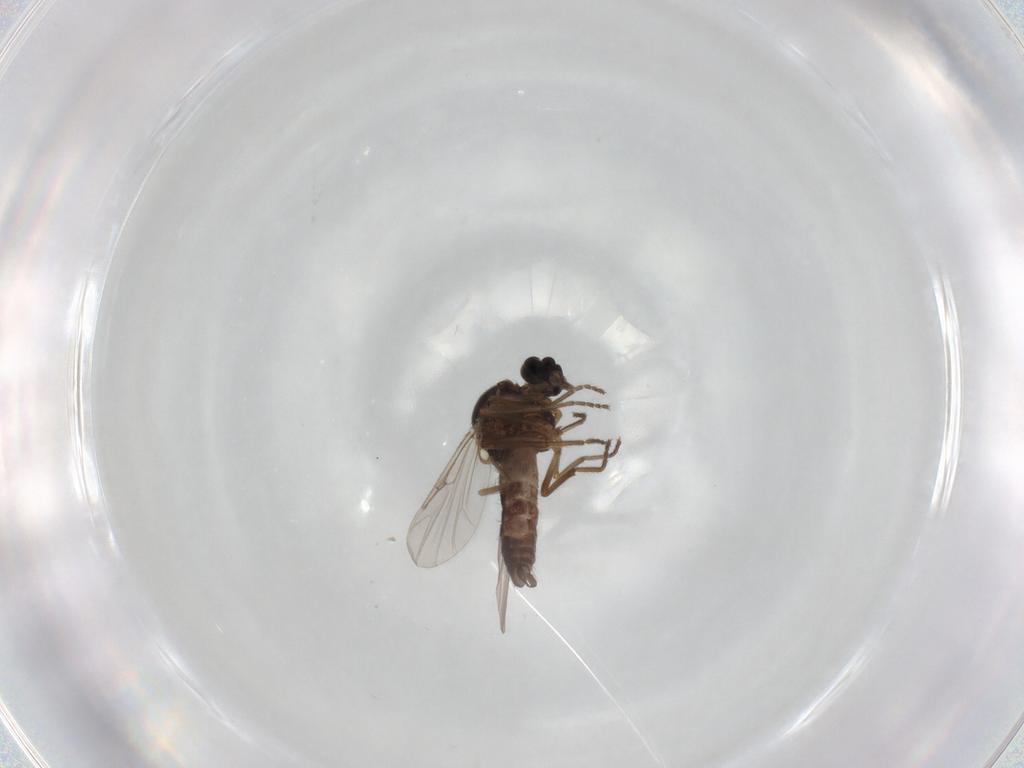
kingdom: Animalia
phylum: Arthropoda
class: Insecta
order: Diptera
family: Ceratopogonidae
